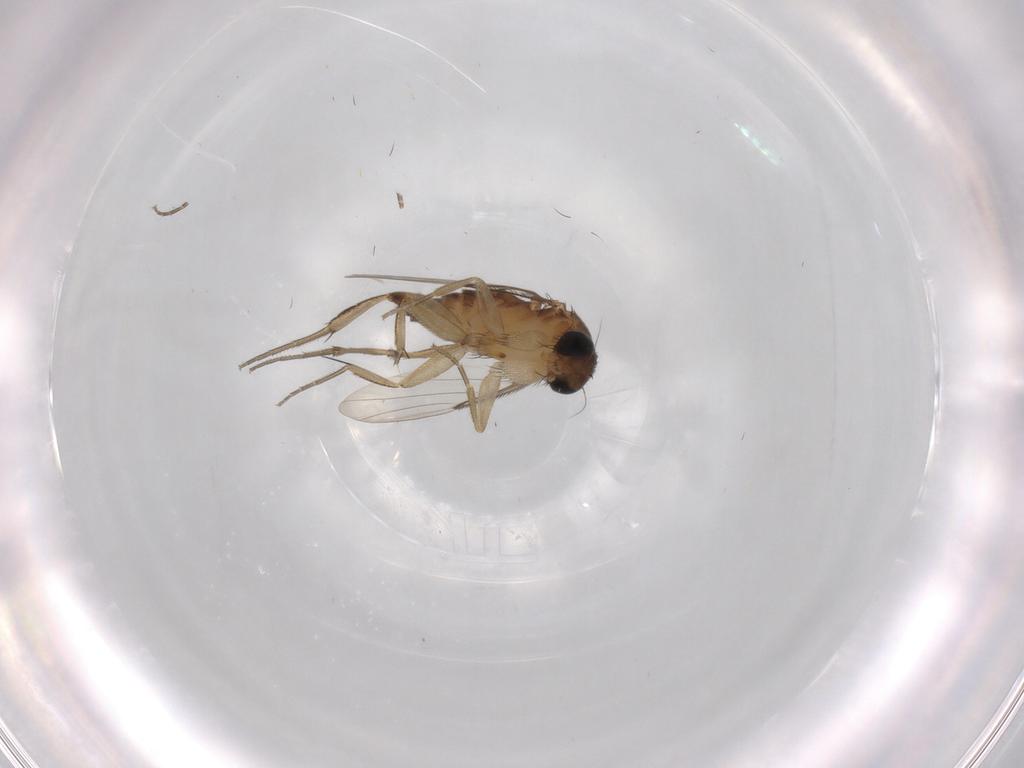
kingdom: Animalia
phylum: Arthropoda
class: Insecta
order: Diptera
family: Phoridae
